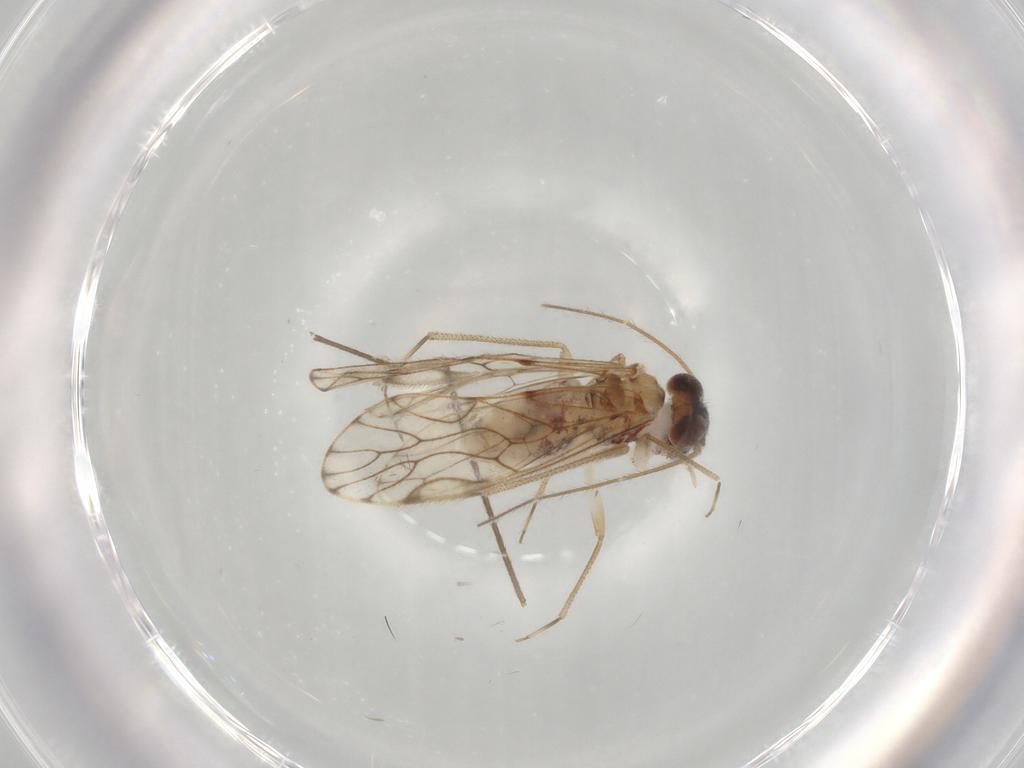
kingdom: Animalia
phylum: Arthropoda
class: Insecta
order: Psocodea
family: Epipsocidae
